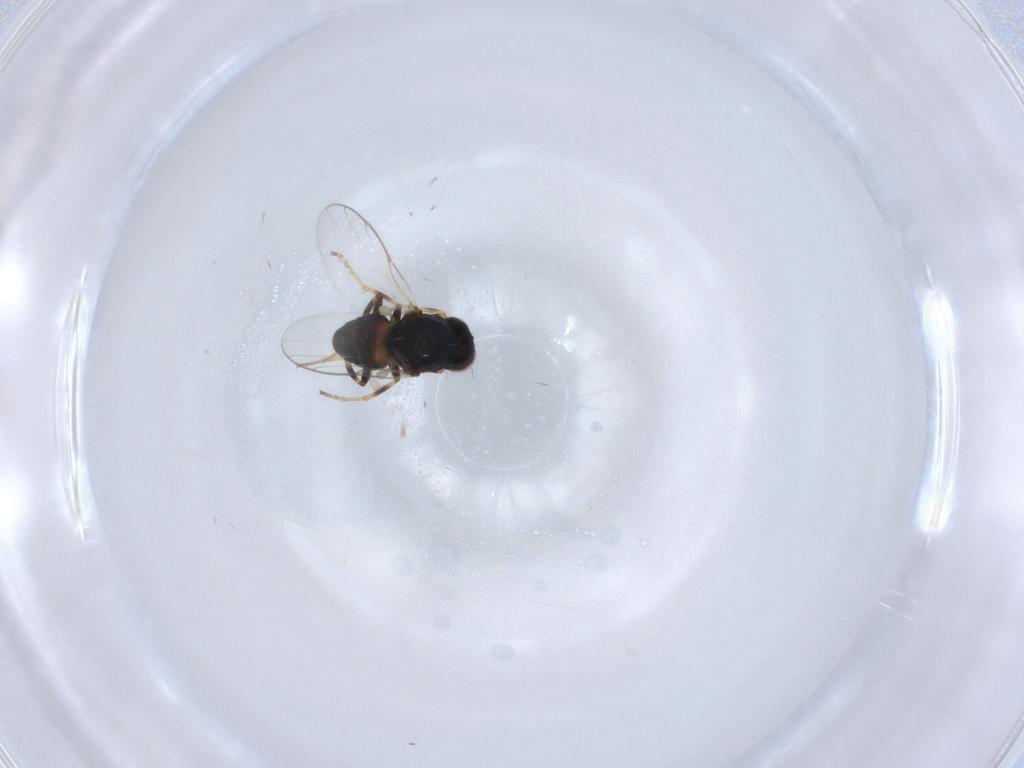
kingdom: Animalia
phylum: Arthropoda
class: Insecta
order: Diptera
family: Chloropidae
